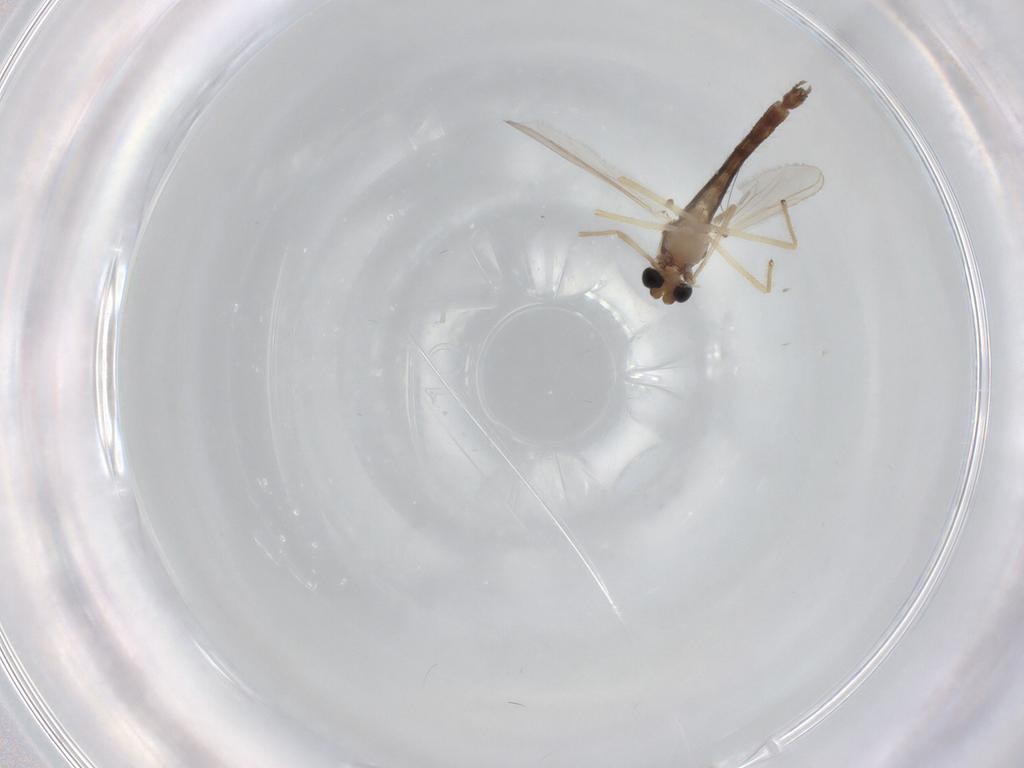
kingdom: Animalia
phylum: Arthropoda
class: Insecta
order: Diptera
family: Chironomidae
